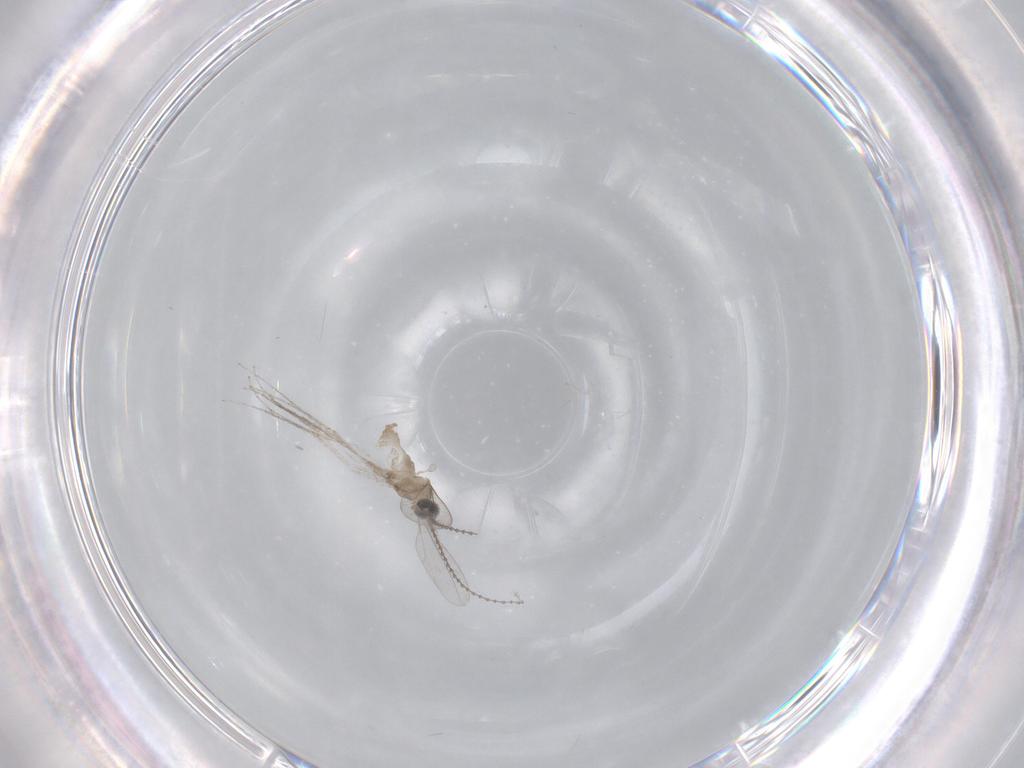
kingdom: Animalia
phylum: Arthropoda
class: Insecta
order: Diptera
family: Cecidomyiidae
